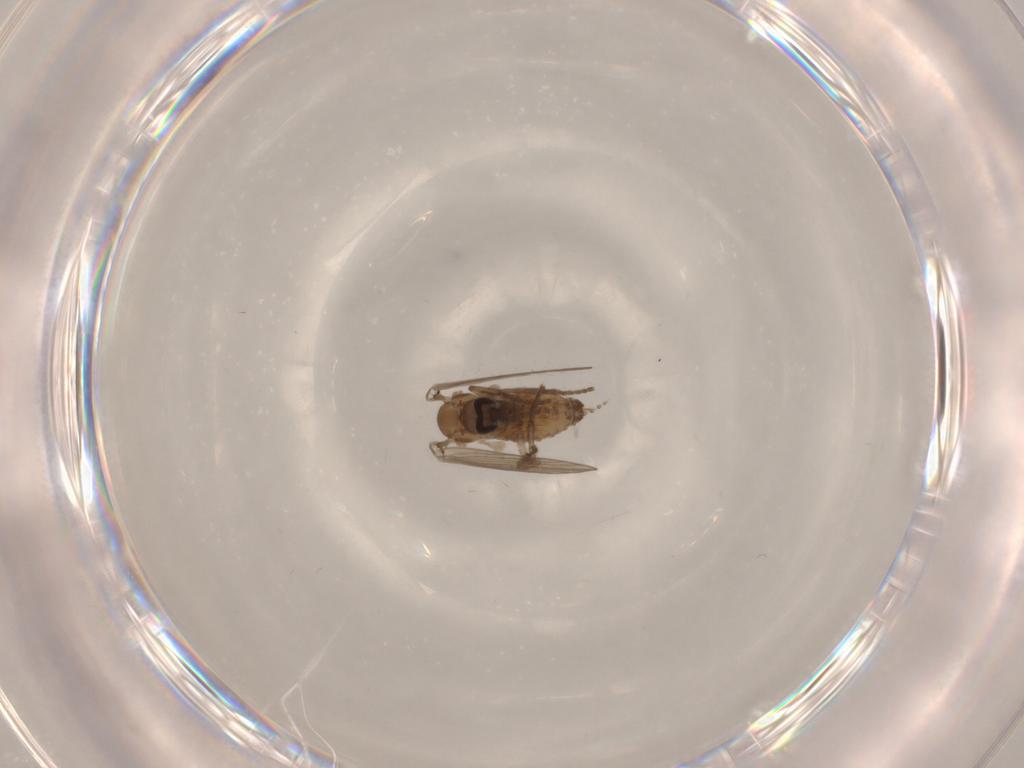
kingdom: Animalia
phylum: Arthropoda
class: Insecta
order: Diptera
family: Psychodidae
